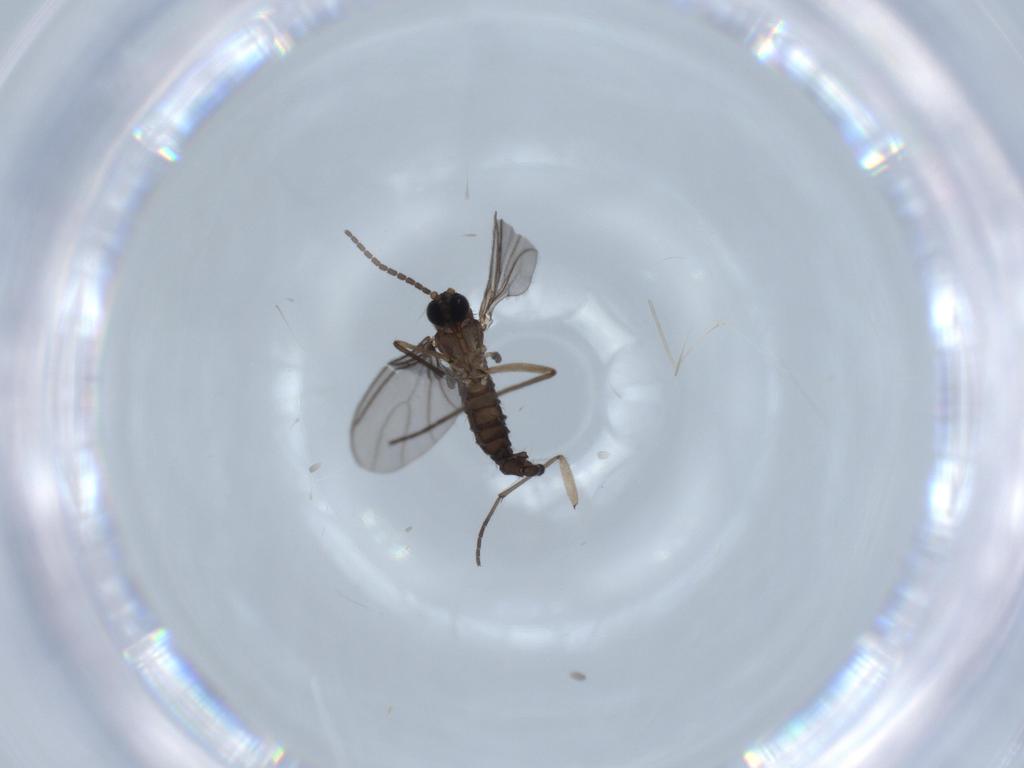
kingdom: Animalia
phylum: Arthropoda
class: Insecta
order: Diptera
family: Sciaridae
